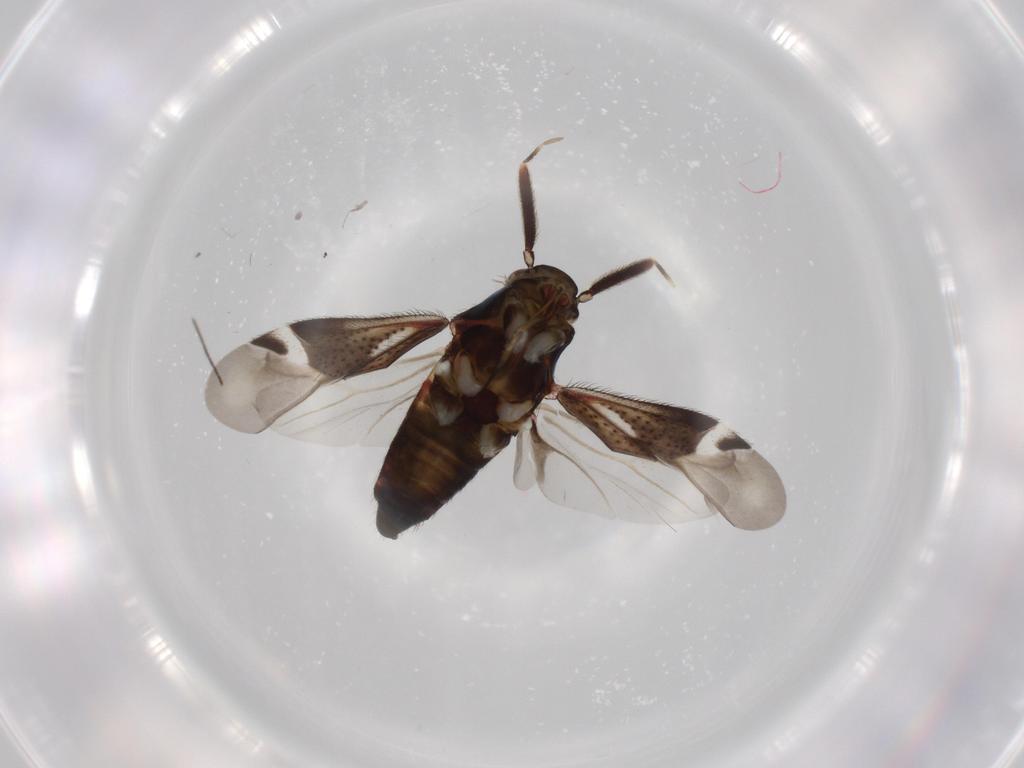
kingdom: Animalia
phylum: Arthropoda
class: Insecta
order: Hemiptera
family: Miridae
